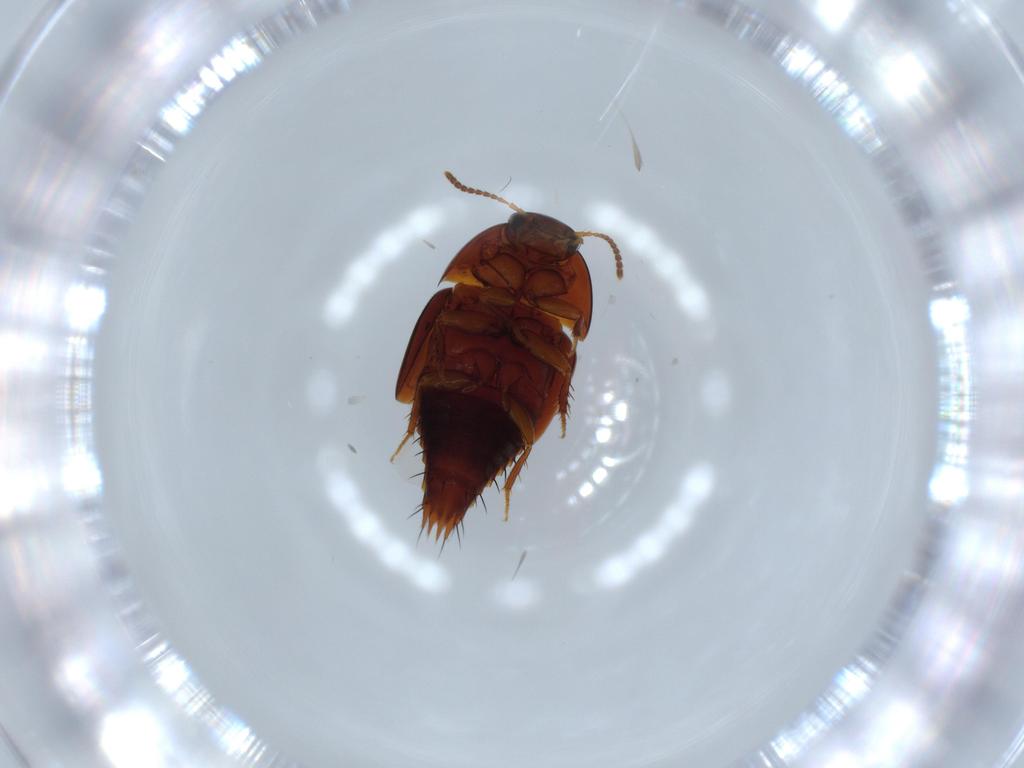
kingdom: Animalia
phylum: Arthropoda
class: Insecta
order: Coleoptera
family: Staphylinidae
